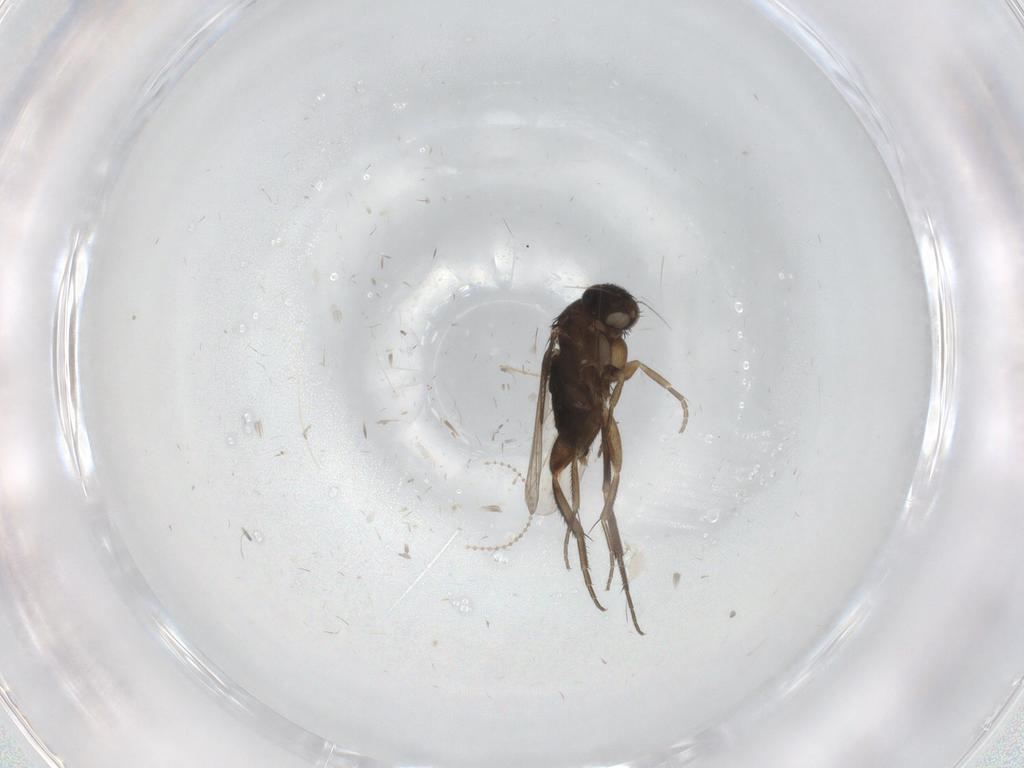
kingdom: Animalia
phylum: Arthropoda
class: Insecta
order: Diptera
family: Phoridae
